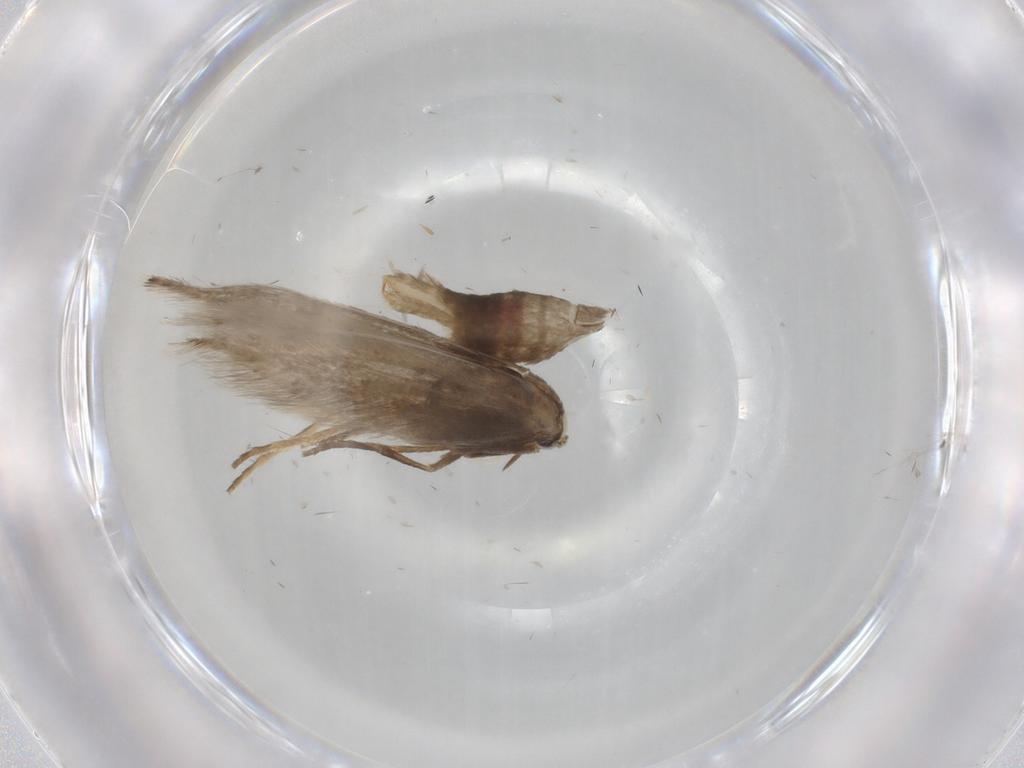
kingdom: Animalia
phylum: Arthropoda
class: Insecta
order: Lepidoptera
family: Gracillariidae
